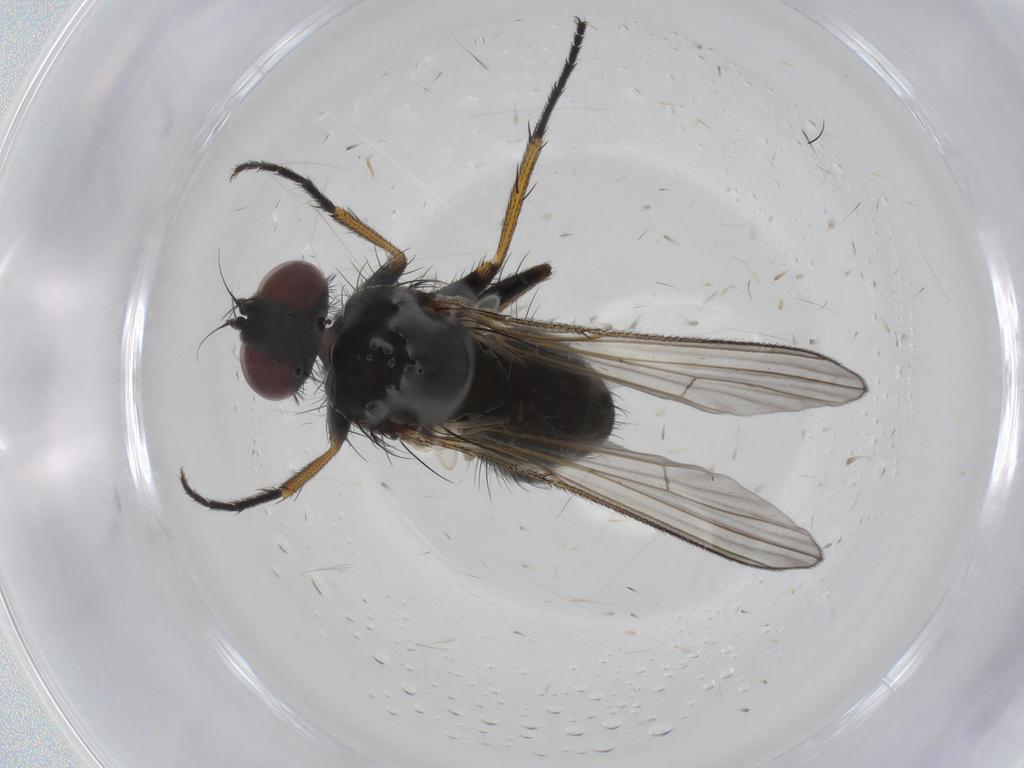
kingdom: Animalia
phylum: Arthropoda
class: Insecta
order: Diptera
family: Muscidae
